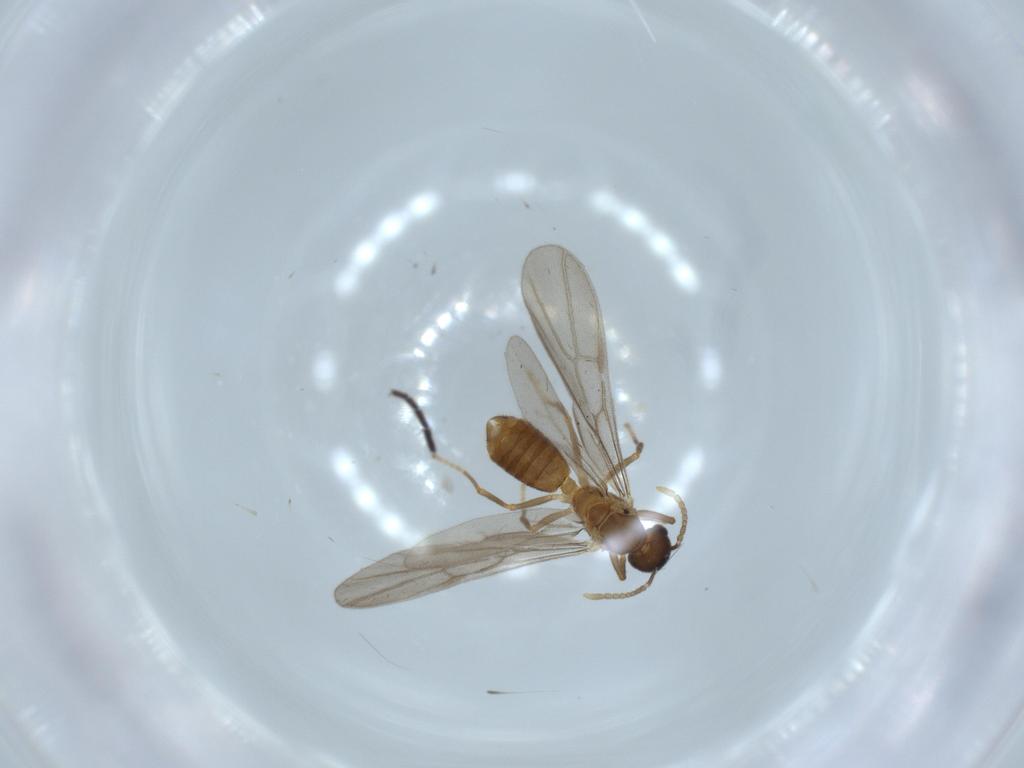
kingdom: Animalia
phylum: Arthropoda
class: Insecta
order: Hymenoptera
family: Formicidae
